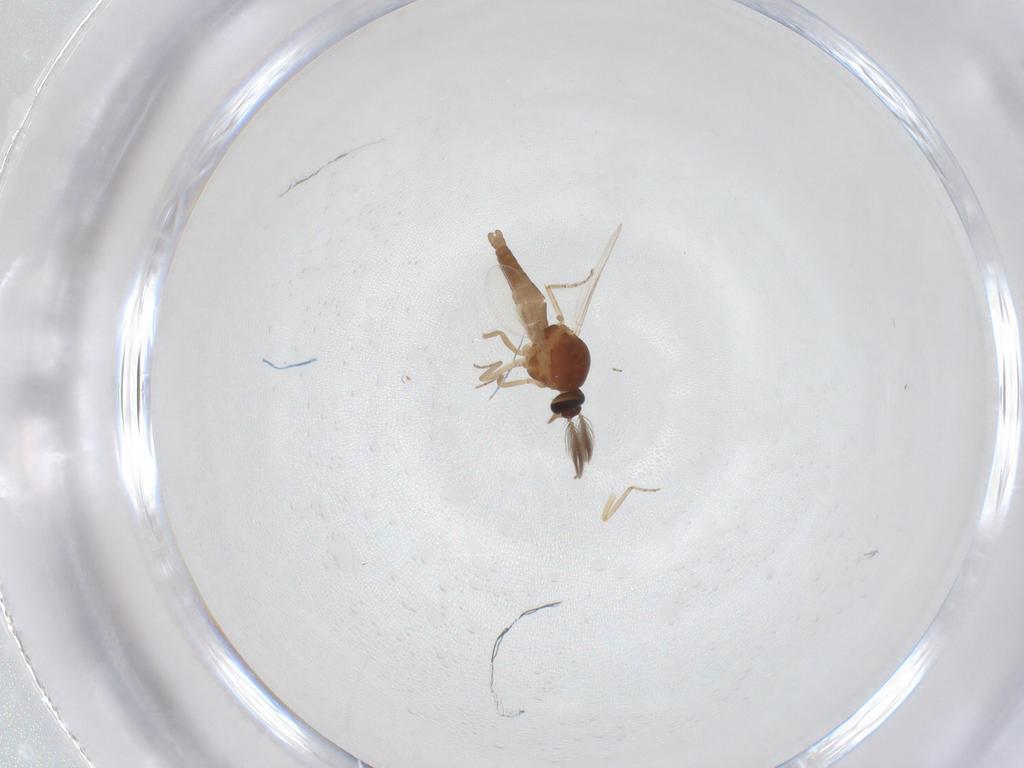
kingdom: Animalia
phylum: Arthropoda
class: Insecta
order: Diptera
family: Ceratopogonidae
